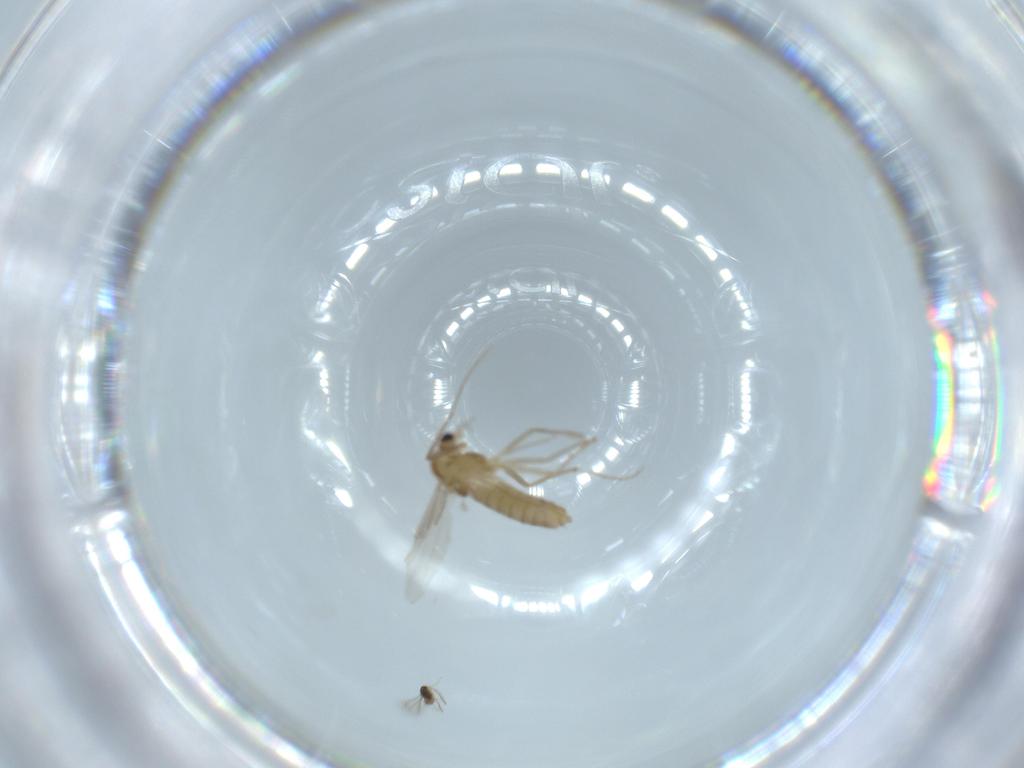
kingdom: Animalia
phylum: Arthropoda
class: Insecta
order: Diptera
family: Chironomidae
